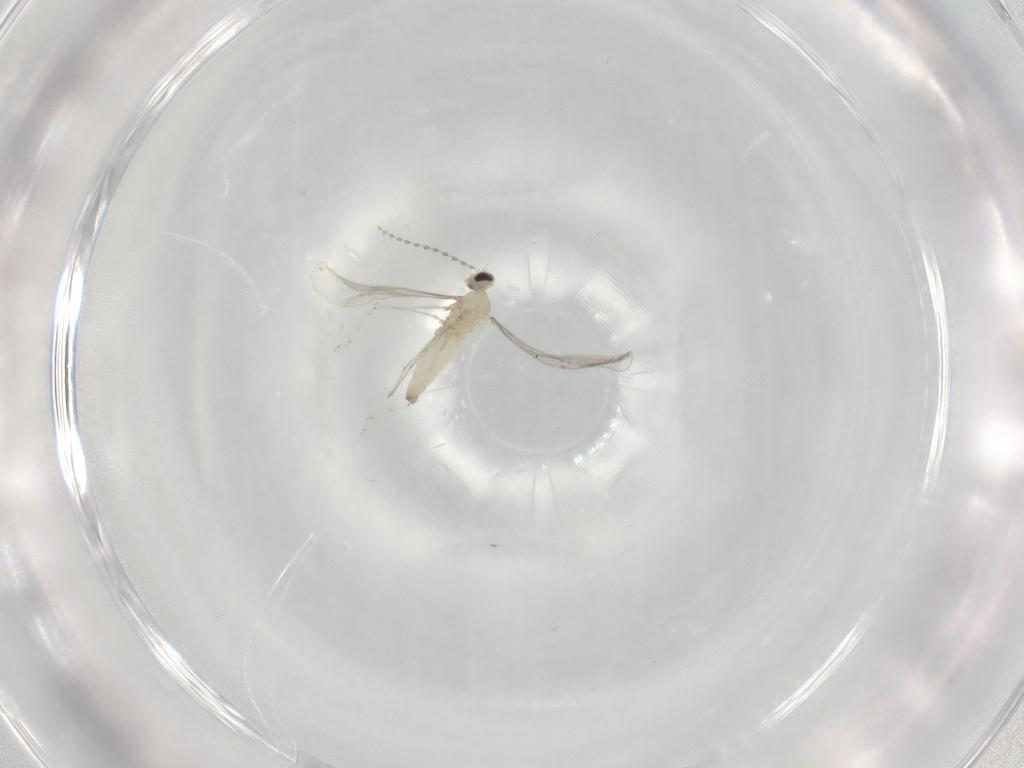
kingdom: Animalia
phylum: Arthropoda
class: Insecta
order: Diptera
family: Cecidomyiidae
